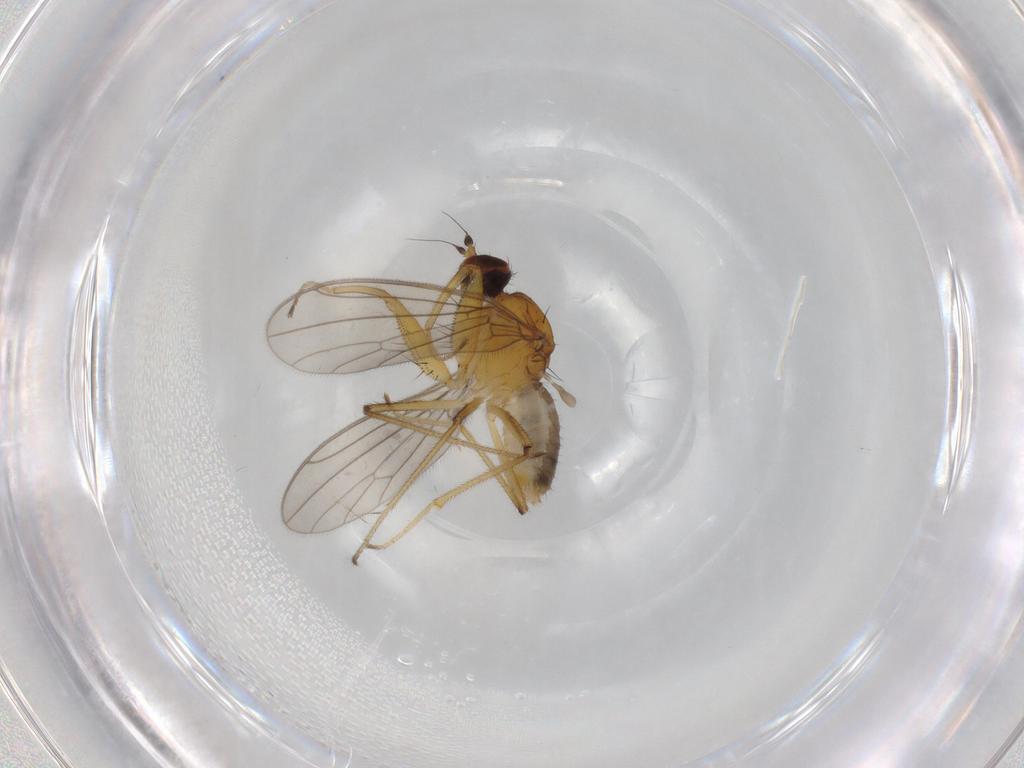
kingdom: Animalia
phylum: Arthropoda
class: Insecta
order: Diptera
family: Empididae
